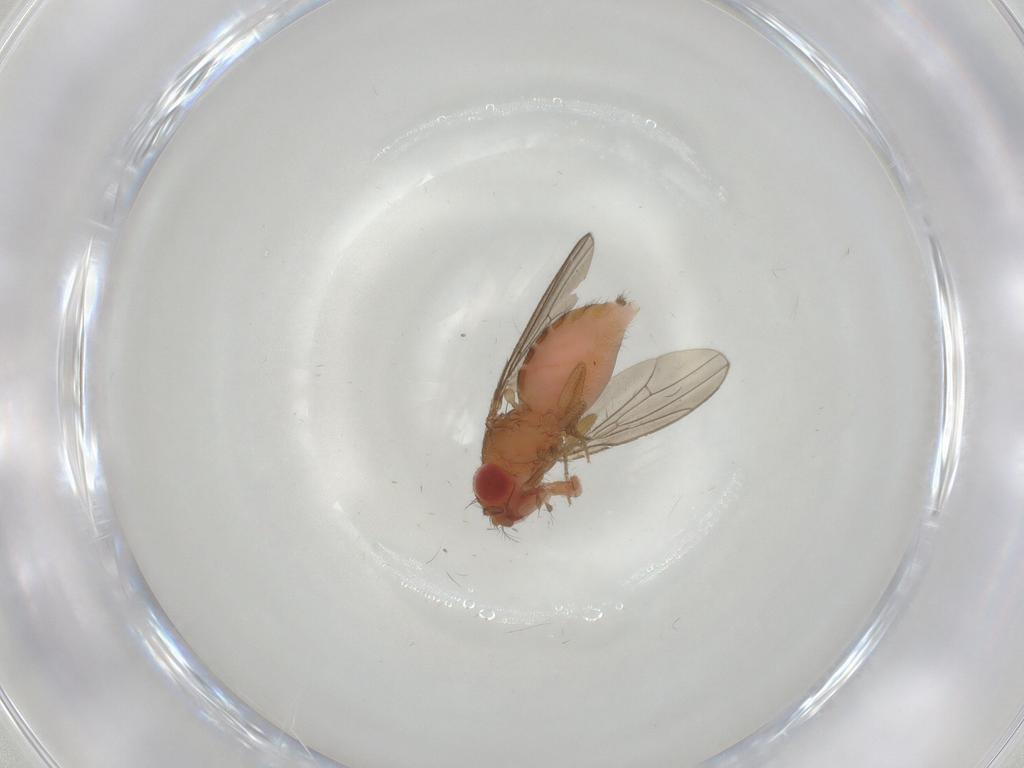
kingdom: Animalia
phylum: Arthropoda
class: Insecta
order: Diptera
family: Drosophilidae
